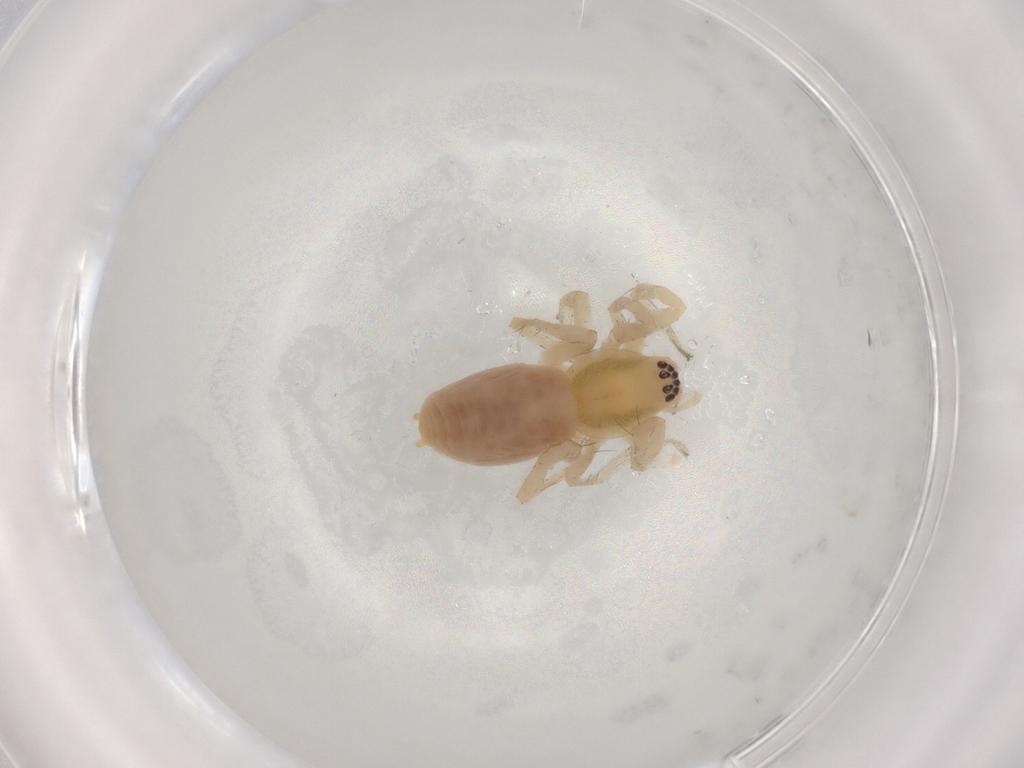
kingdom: Animalia
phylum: Arthropoda
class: Arachnida
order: Araneae
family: Anyphaenidae
